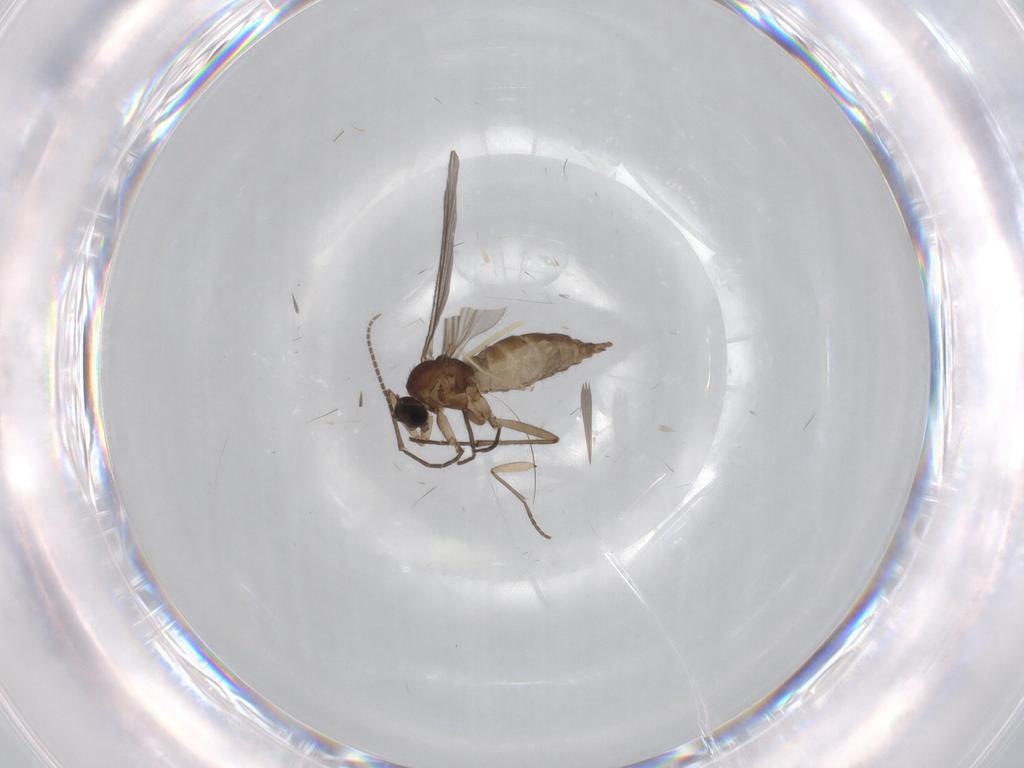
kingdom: Animalia
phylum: Arthropoda
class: Insecta
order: Diptera
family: Sciaridae
